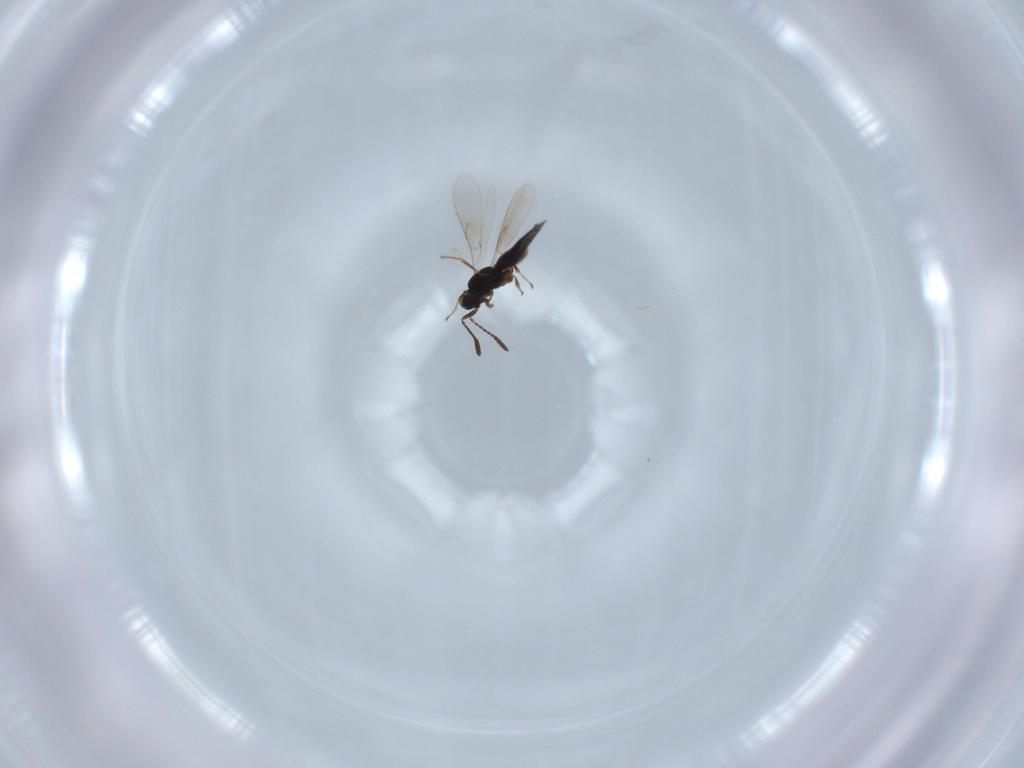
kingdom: Animalia
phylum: Arthropoda
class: Insecta
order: Hymenoptera
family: Scelionidae
